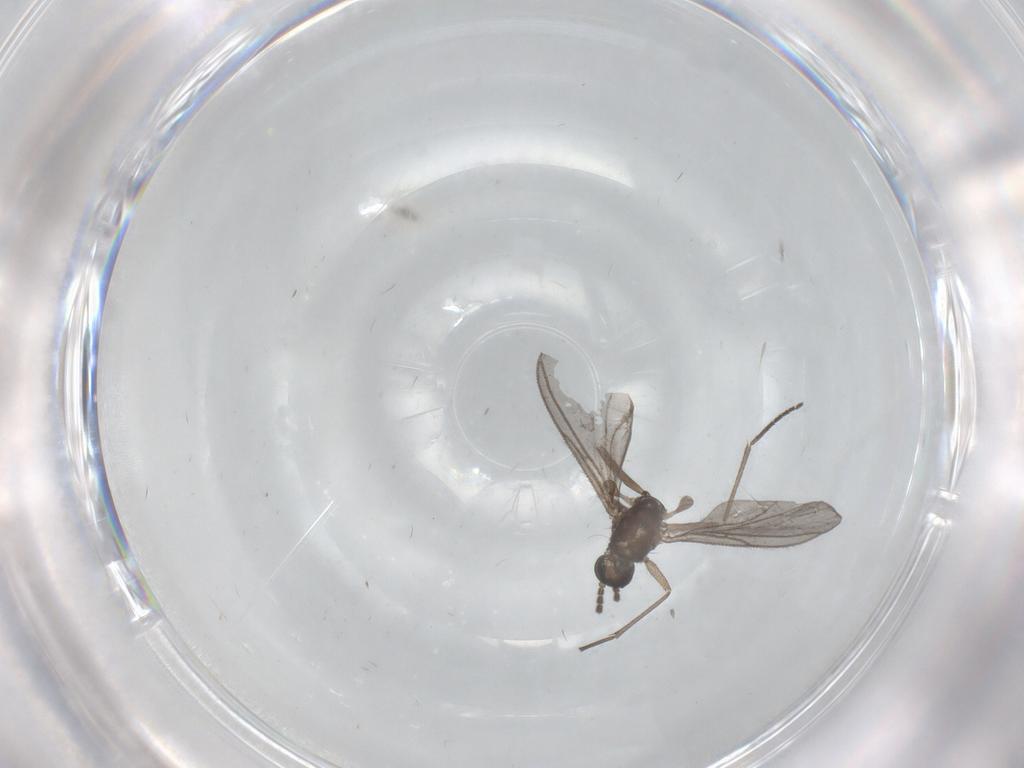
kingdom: Animalia
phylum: Arthropoda
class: Insecta
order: Diptera
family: Sciaridae
